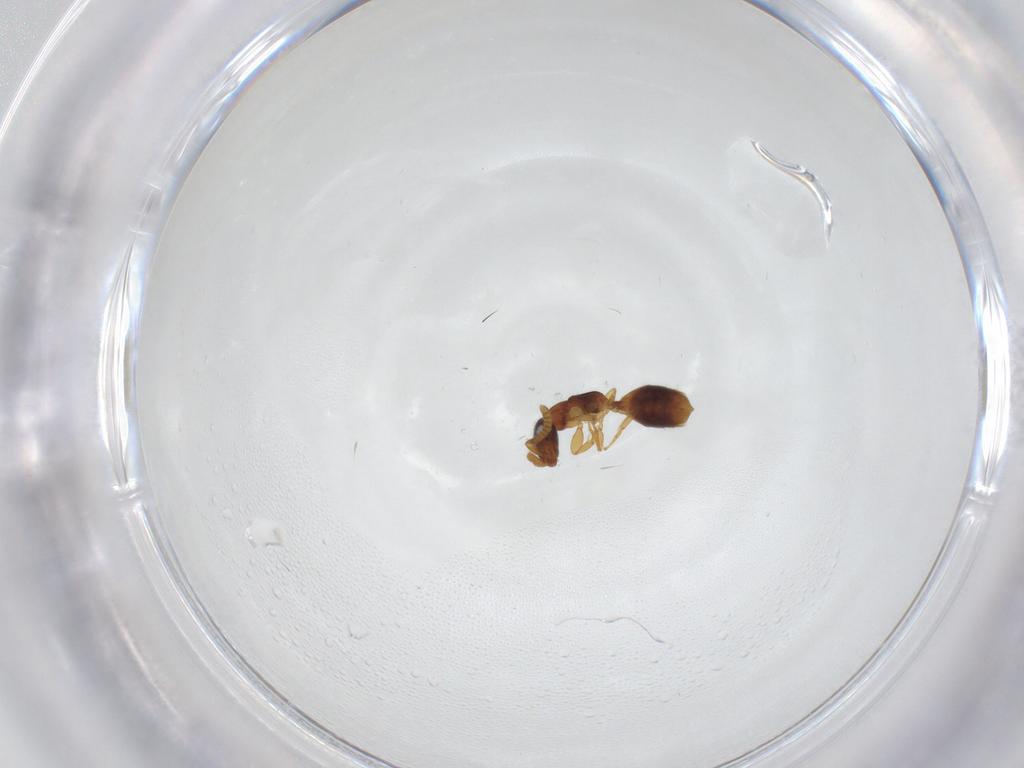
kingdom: Animalia
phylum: Arthropoda
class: Insecta
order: Hymenoptera
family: Bethylidae
